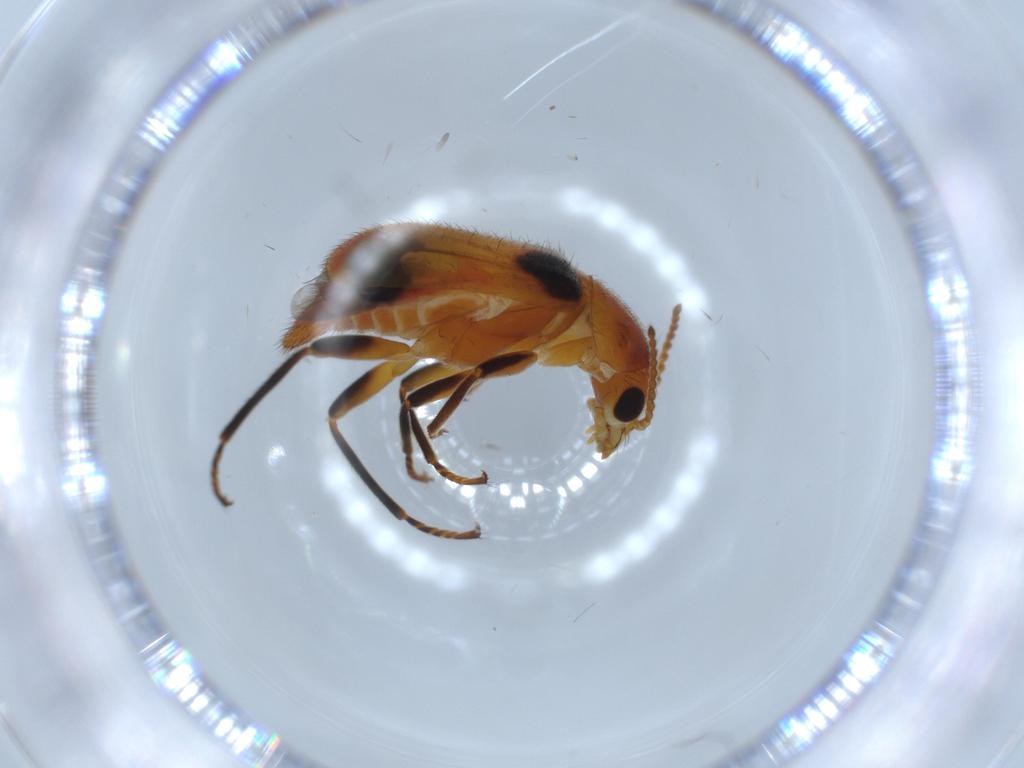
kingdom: Animalia
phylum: Arthropoda
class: Insecta
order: Coleoptera
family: Melyridae
